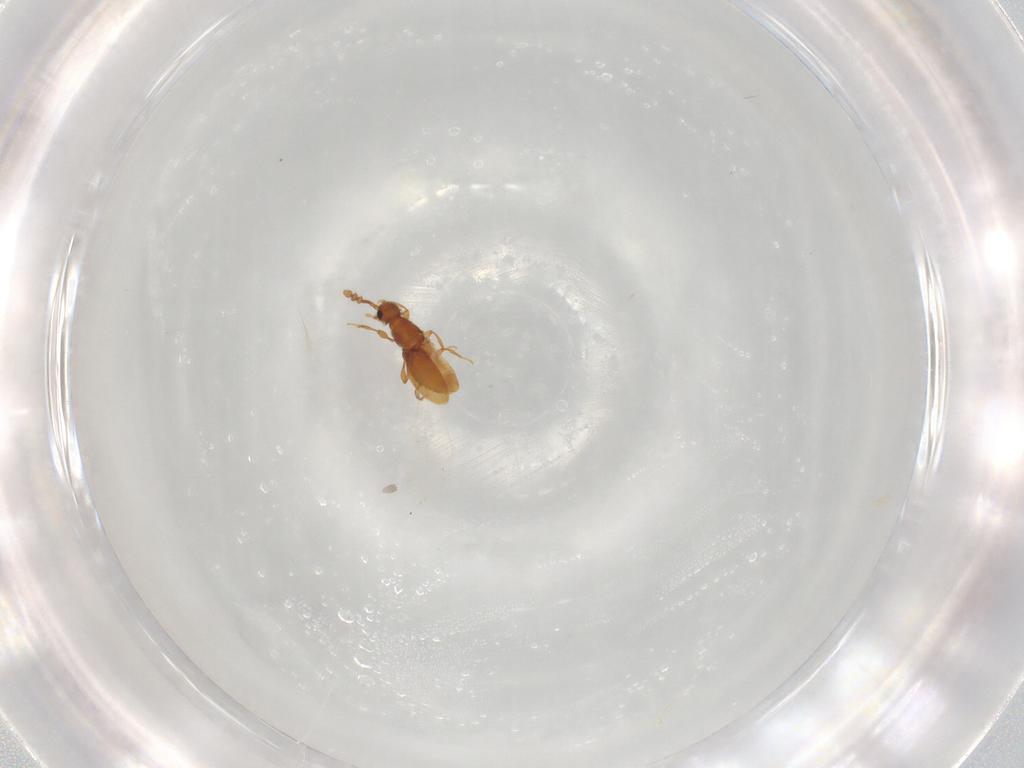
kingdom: Animalia
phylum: Arthropoda
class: Insecta
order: Coleoptera
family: Staphylinidae
